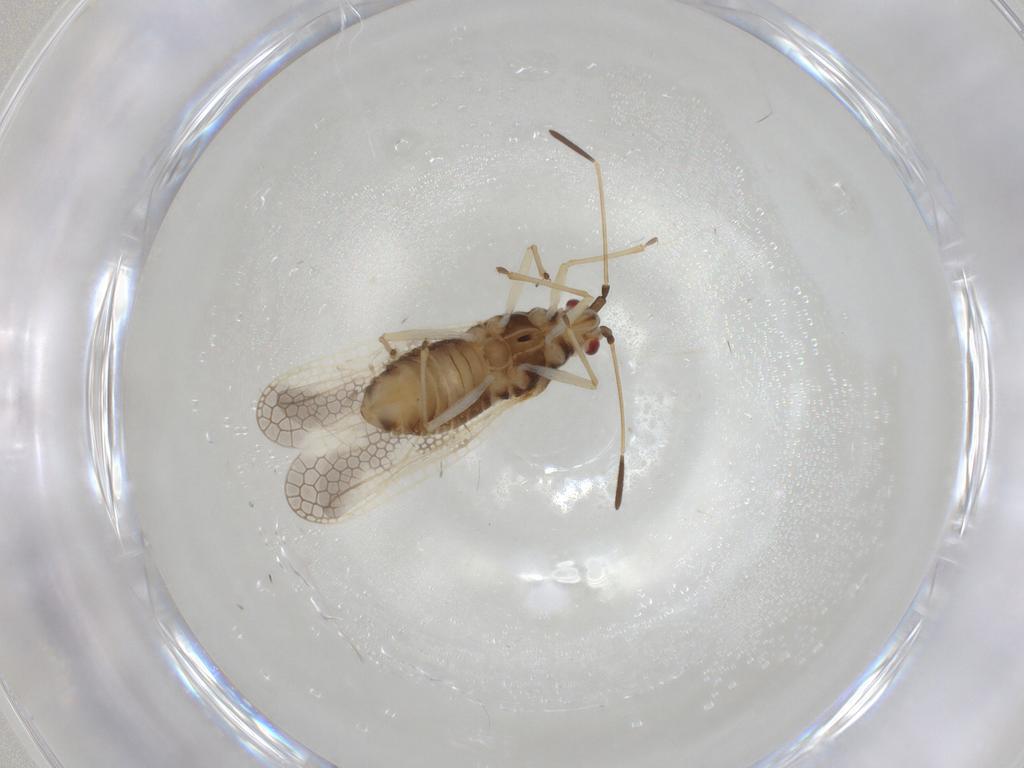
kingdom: Animalia
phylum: Arthropoda
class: Insecta
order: Hemiptera
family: Tingidae
